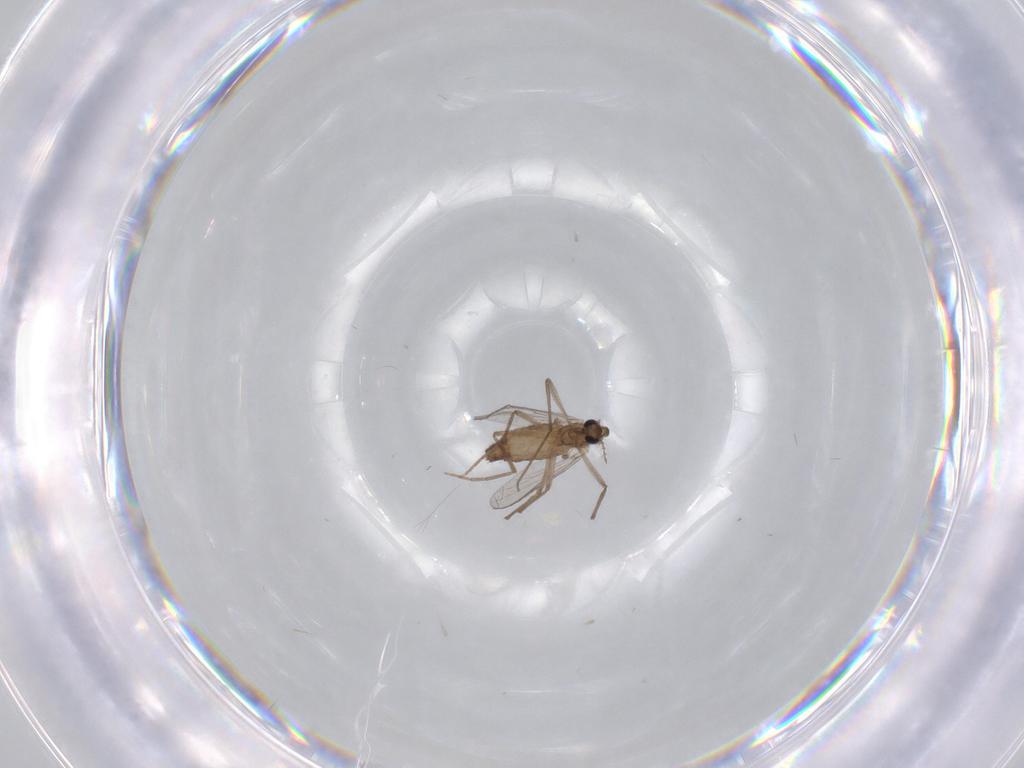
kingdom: Animalia
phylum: Arthropoda
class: Insecta
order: Diptera
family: Chironomidae
